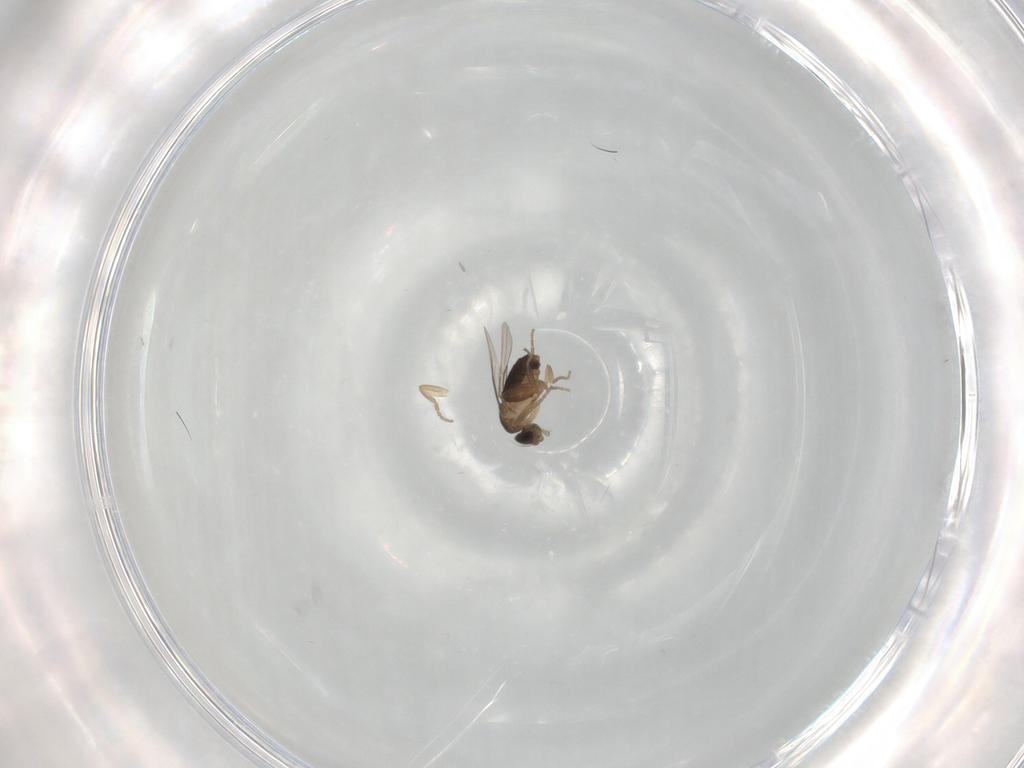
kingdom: Animalia
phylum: Arthropoda
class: Insecta
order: Diptera
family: Phoridae
